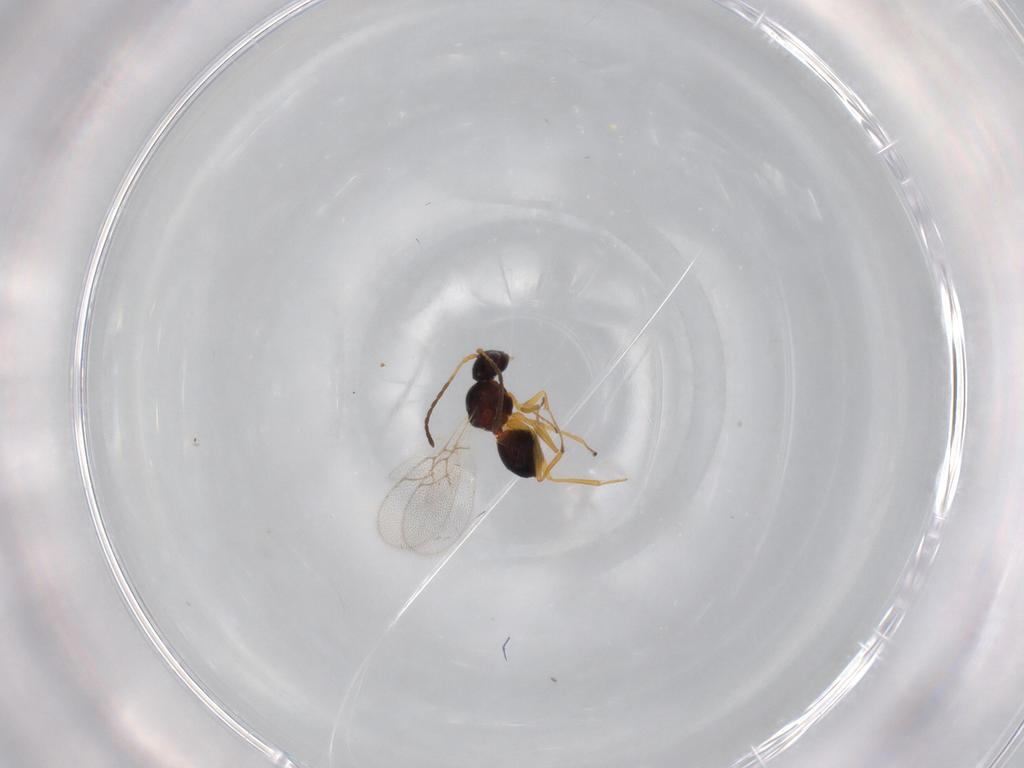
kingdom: Animalia
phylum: Arthropoda
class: Insecta
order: Hymenoptera
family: Figitidae
